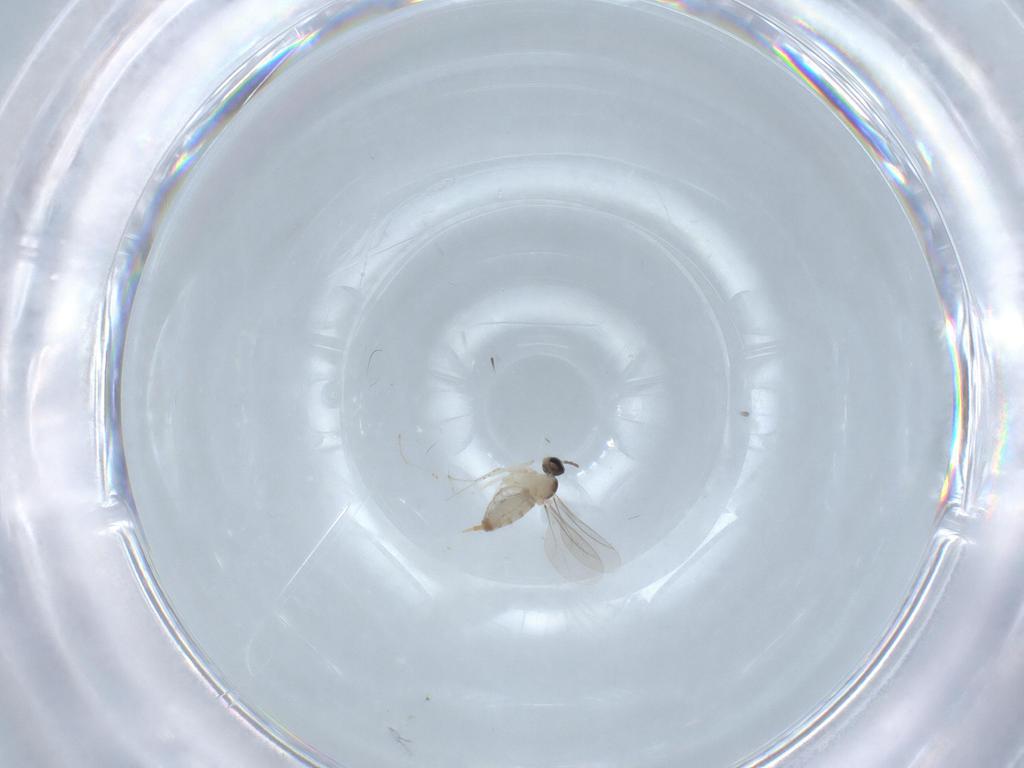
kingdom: Animalia
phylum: Arthropoda
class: Insecta
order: Diptera
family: Cecidomyiidae
